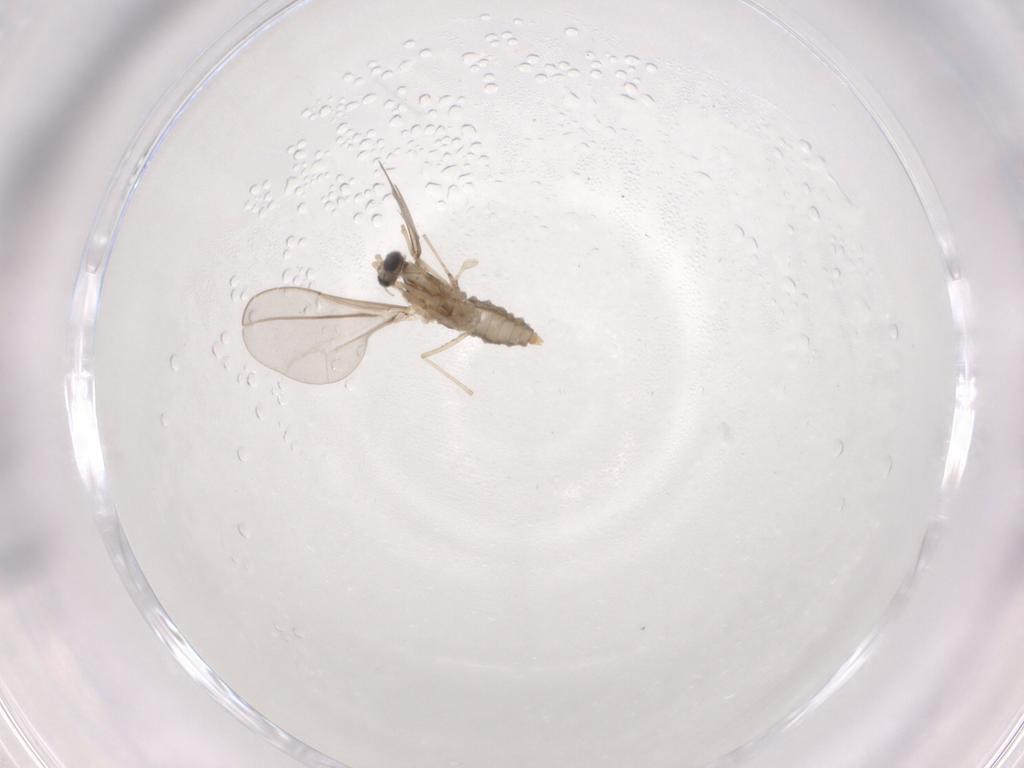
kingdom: Animalia
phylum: Arthropoda
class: Insecta
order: Diptera
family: Cecidomyiidae
